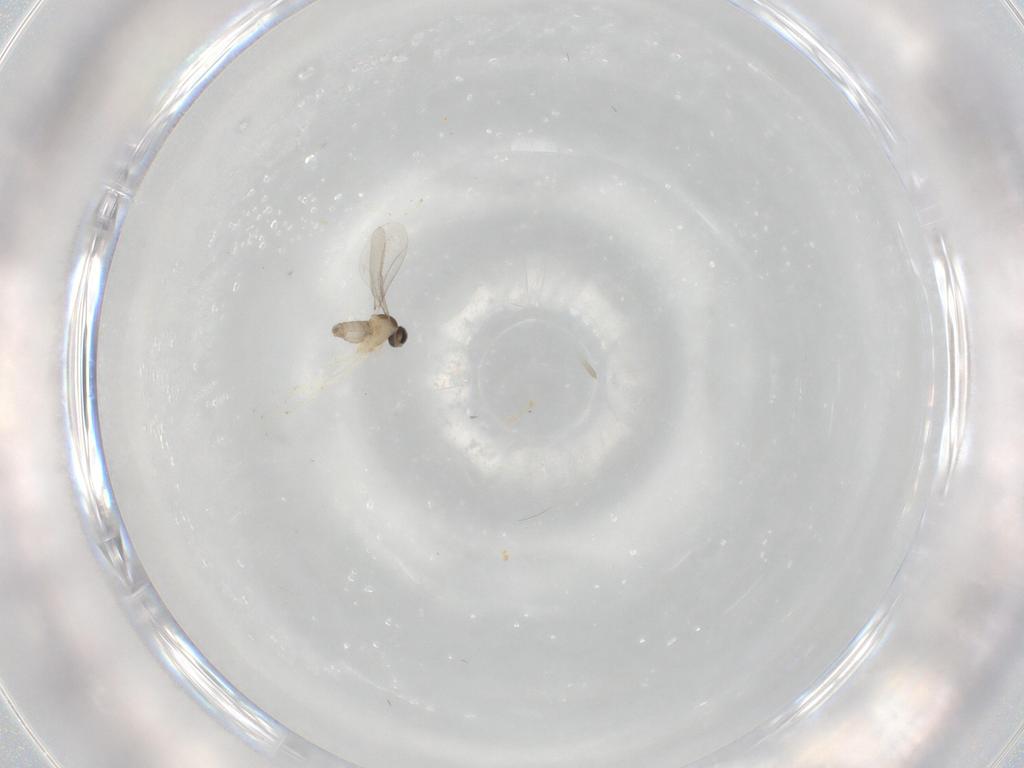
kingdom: Animalia
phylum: Arthropoda
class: Insecta
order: Diptera
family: Cecidomyiidae
